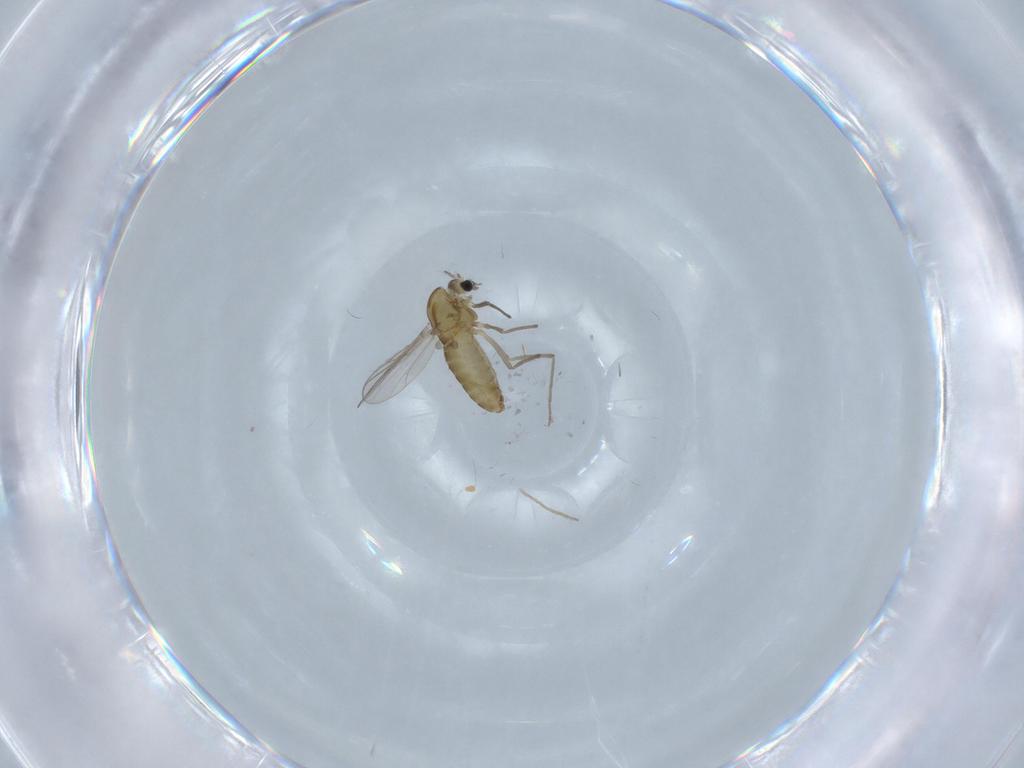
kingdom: Animalia
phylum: Arthropoda
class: Insecta
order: Diptera
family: Chironomidae
